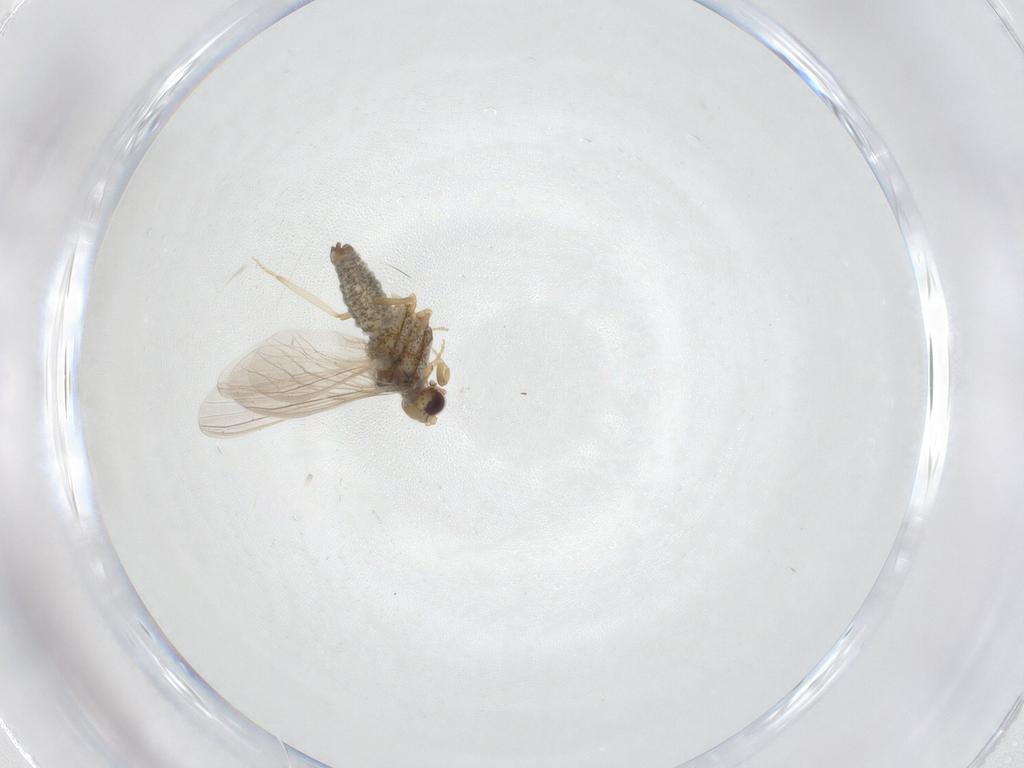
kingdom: Animalia
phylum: Arthropoda
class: Insecta
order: Neuroptera
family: Coniopterygidae
